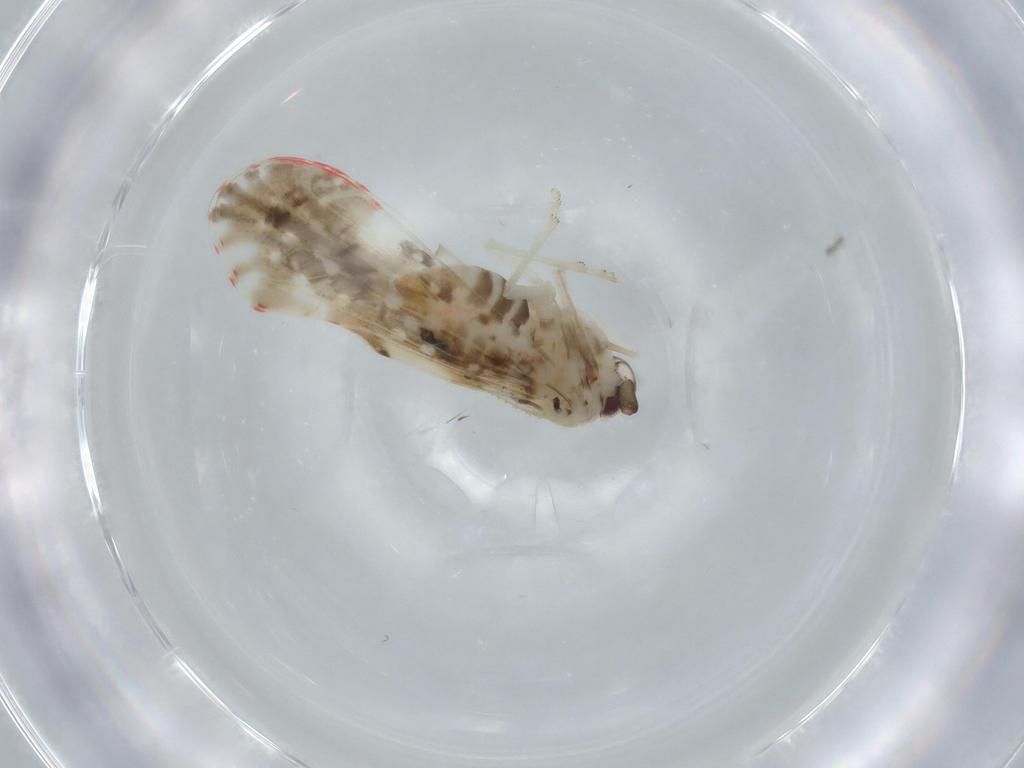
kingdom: Animalia
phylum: Arthropoda
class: Insecta
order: Hemiptera
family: Derbidae
